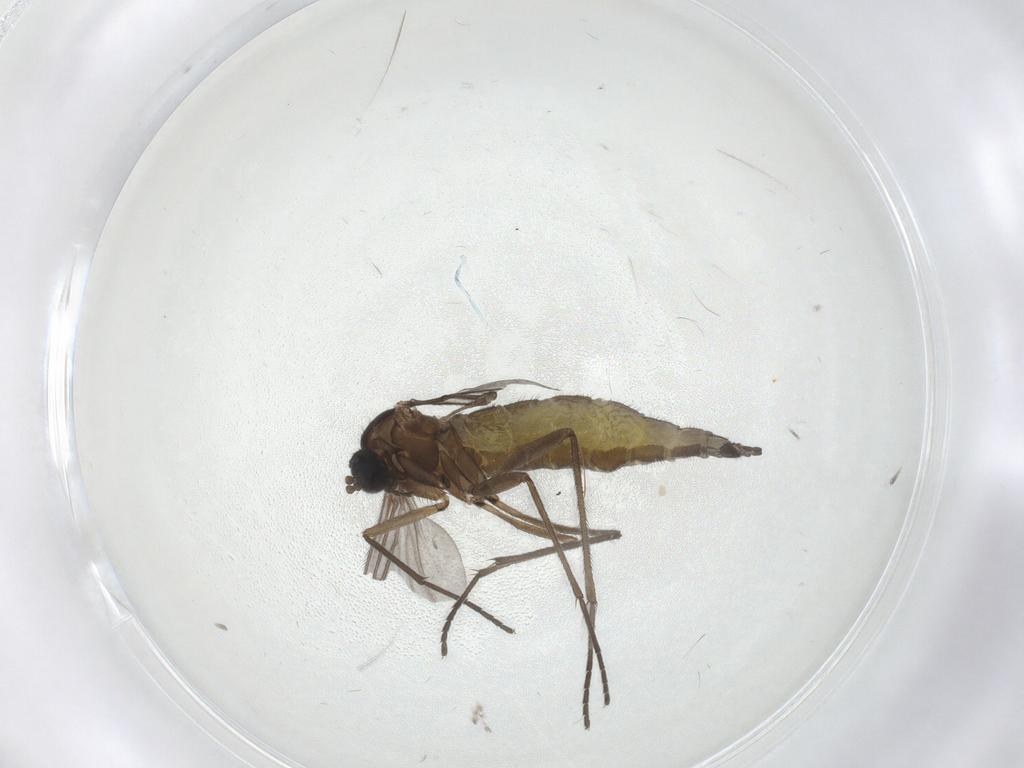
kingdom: Animalia
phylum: Arthropoda
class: Insecta
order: Diptera
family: Sciaridae
